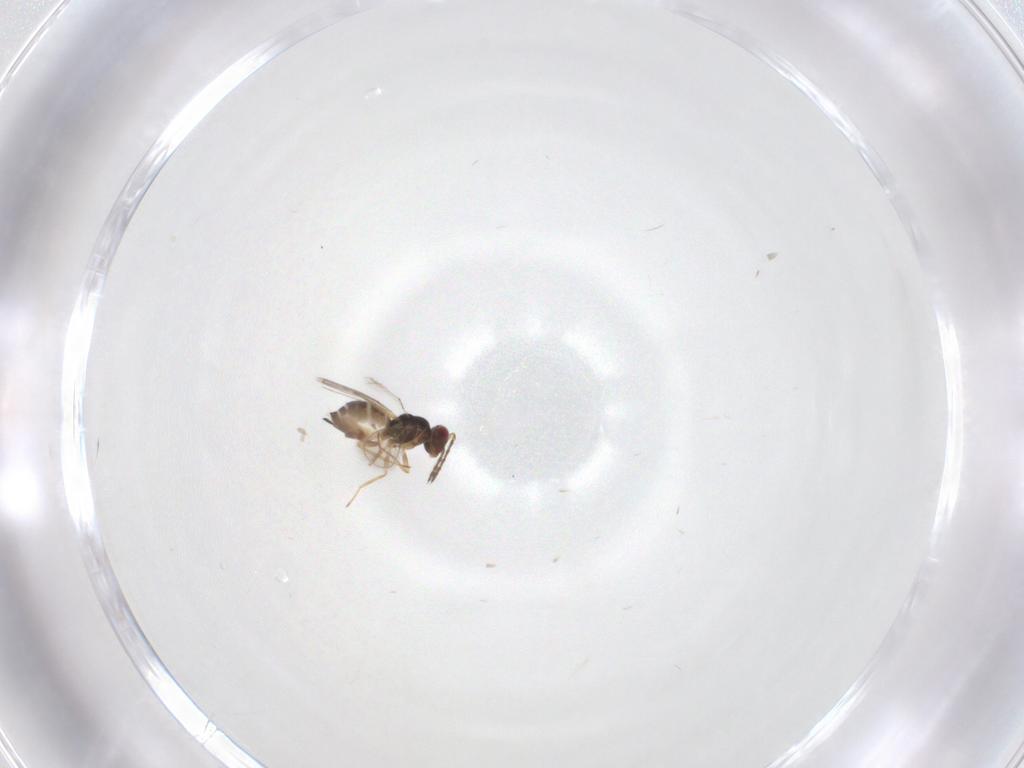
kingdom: Animalia
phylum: Arthropoda
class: Insecta
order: Hymenoptera
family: Eulophidae
